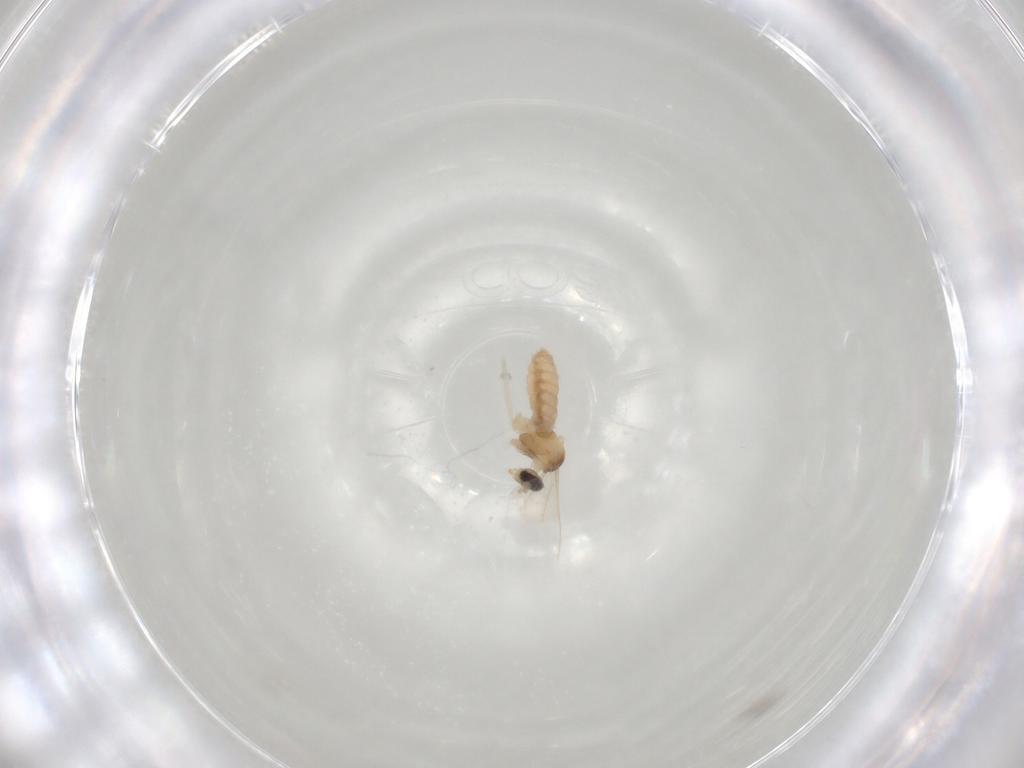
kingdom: Animalia
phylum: Arthropoda
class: Insecta
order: Diptera
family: Cecidomyiidae
